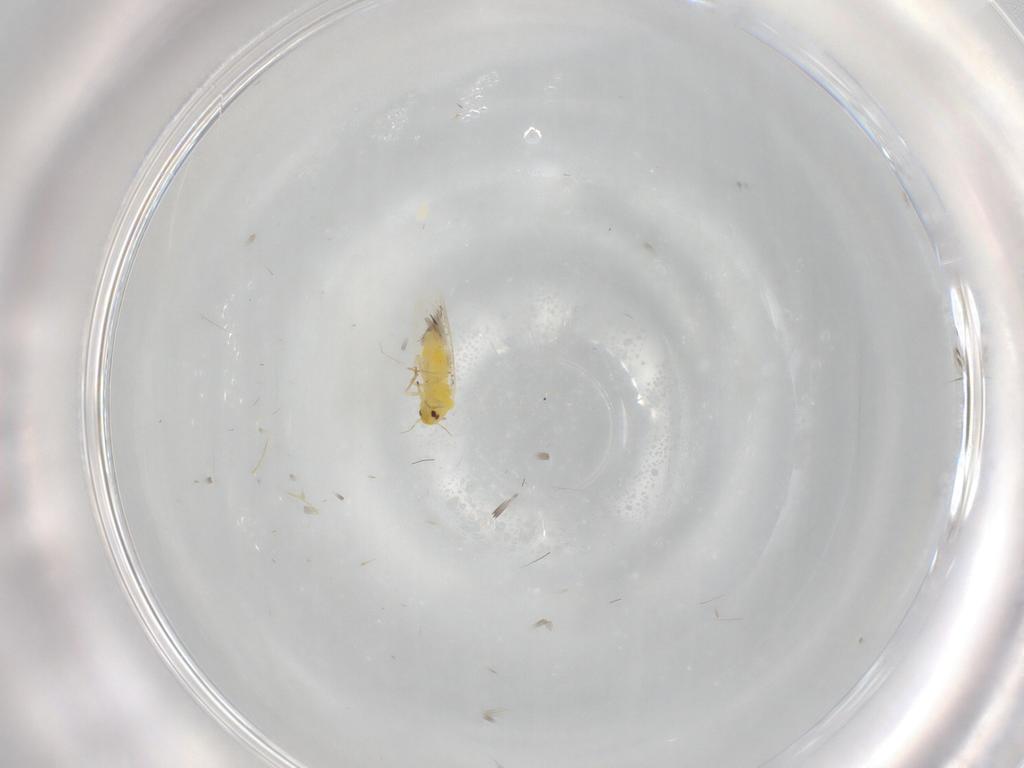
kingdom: Animalia
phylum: Arthropoda
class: Insecta
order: Hemiptera
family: Aleyrodidae
